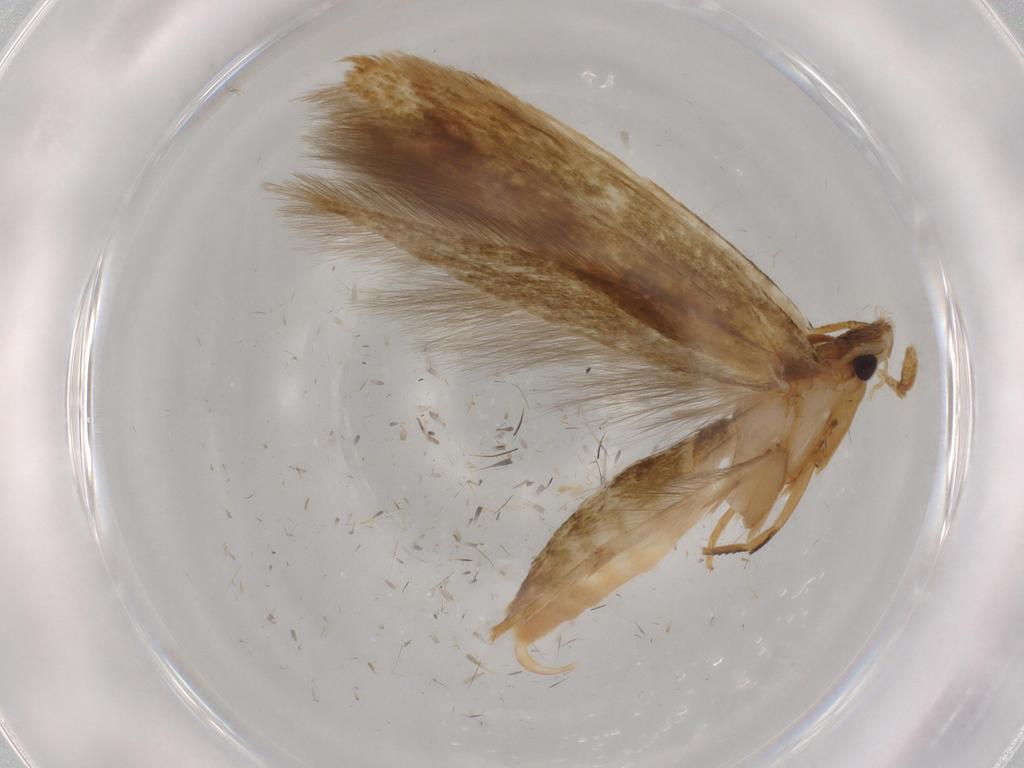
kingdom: Animalia
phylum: Arthropoda
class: Insecta
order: Lepidoptera
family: Tineidae
